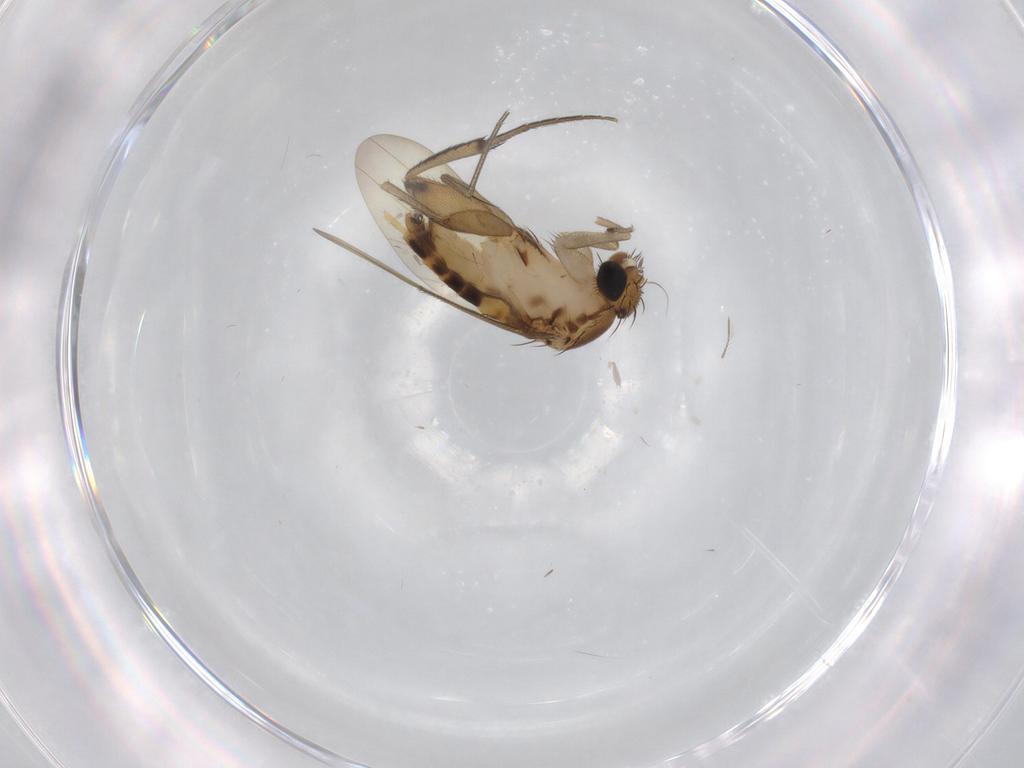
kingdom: Animalia
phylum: Arthropoda
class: Insecta
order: Diptera
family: Phoridae
